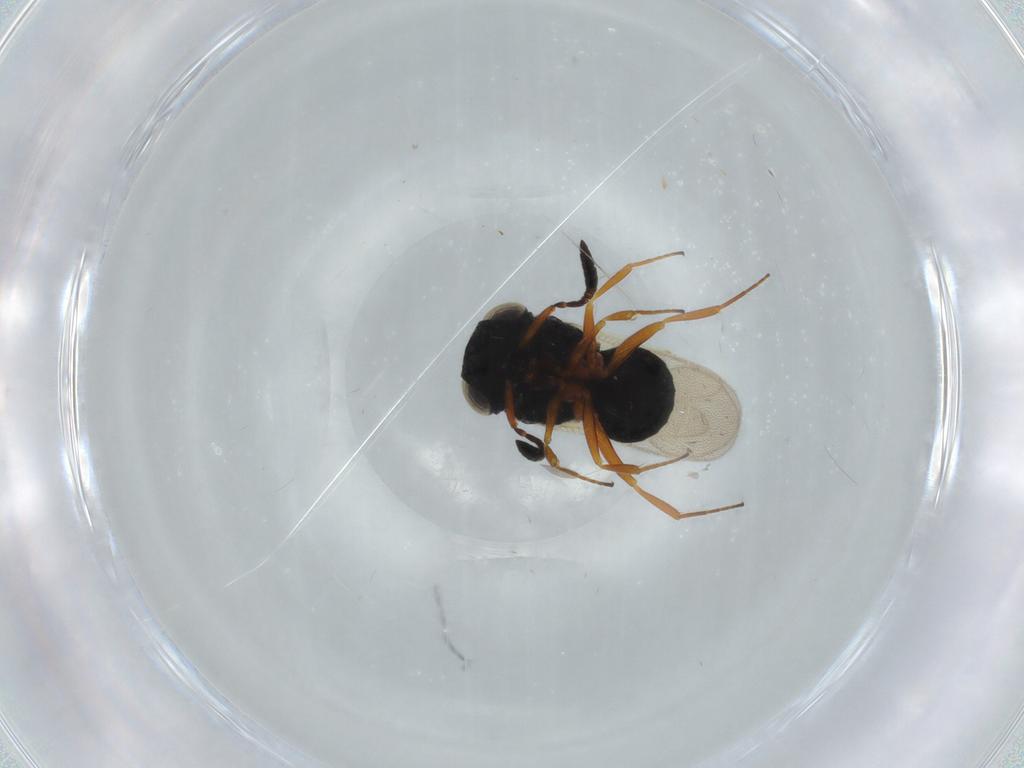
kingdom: Animalia
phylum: Arthropoda
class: Insecta
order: Hymenoptera
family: Scelionidae
